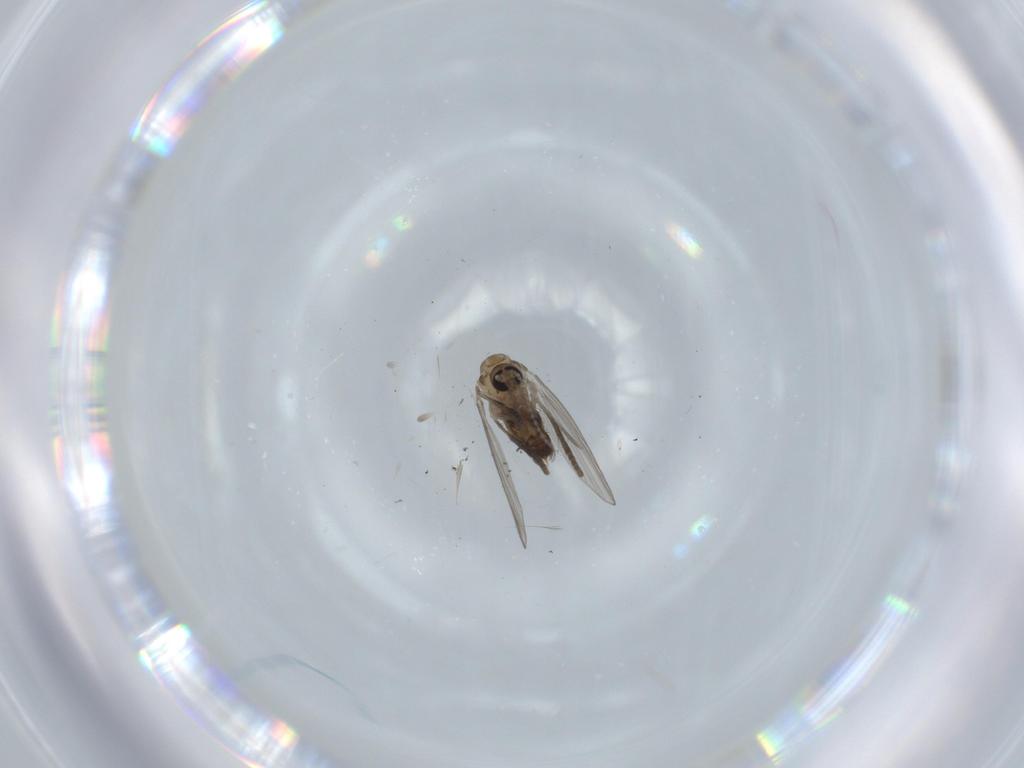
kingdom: Animalia
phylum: Arthropoda
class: Insecta
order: Diptera
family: Psychodidae
